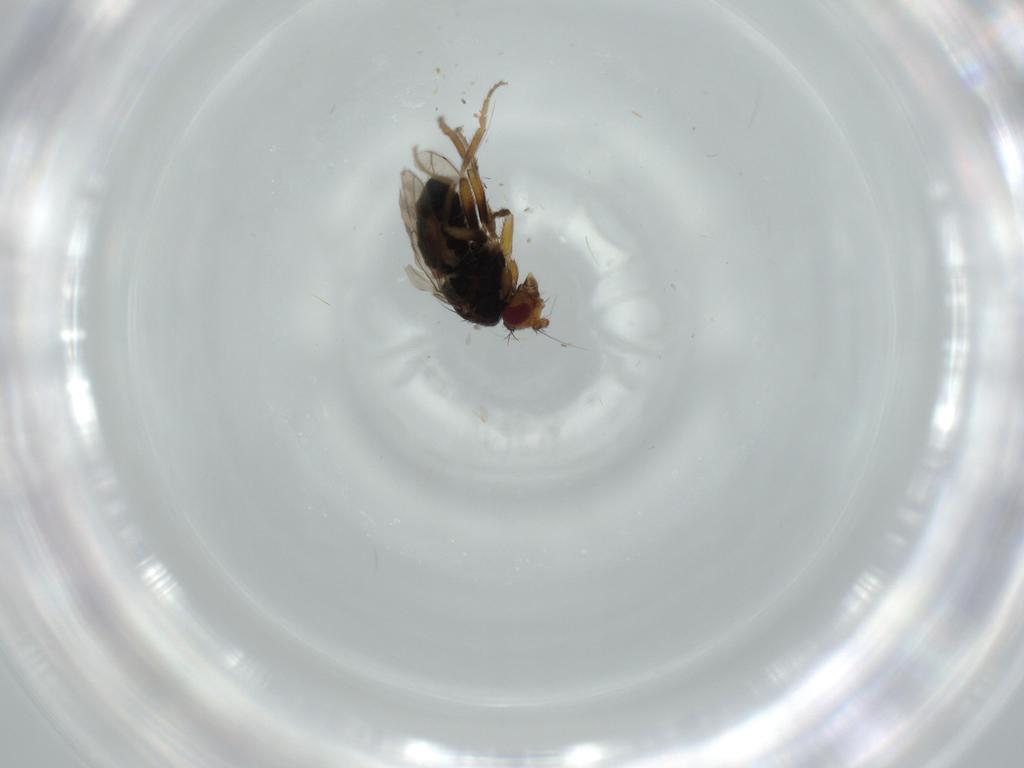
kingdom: Animalia
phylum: Arthropoda
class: Insecta
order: Diptera
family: Sphaeroceridae
